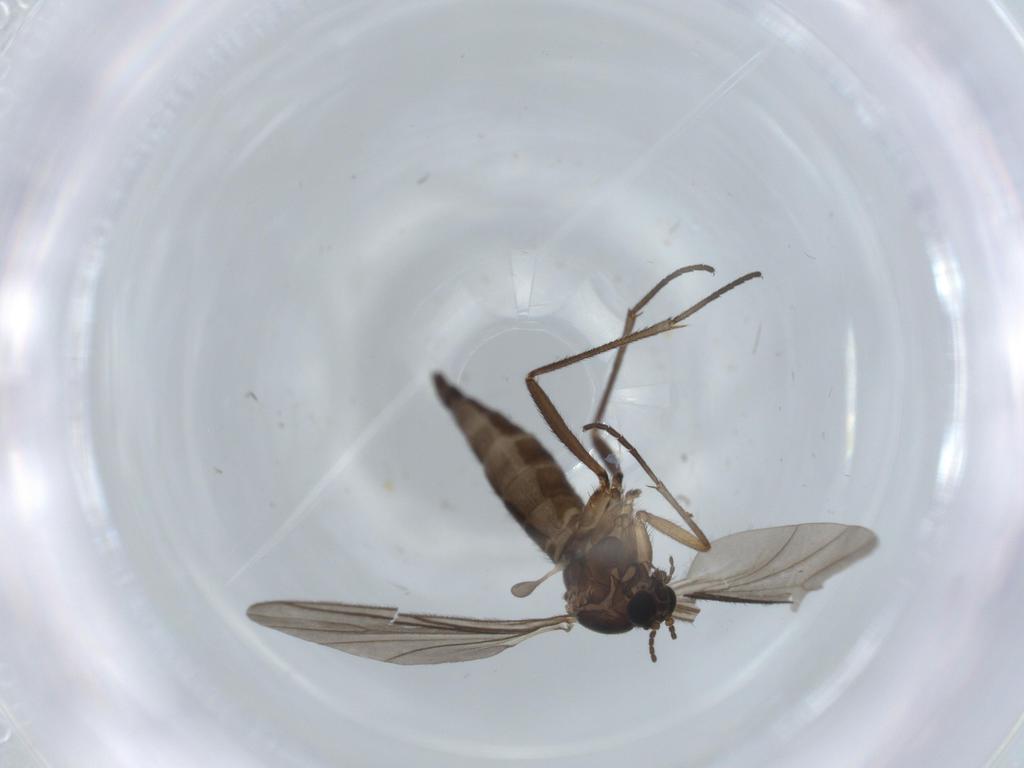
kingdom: Animalia
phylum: Arthropoda
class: Insecta
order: Diptera
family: Sciaridae
